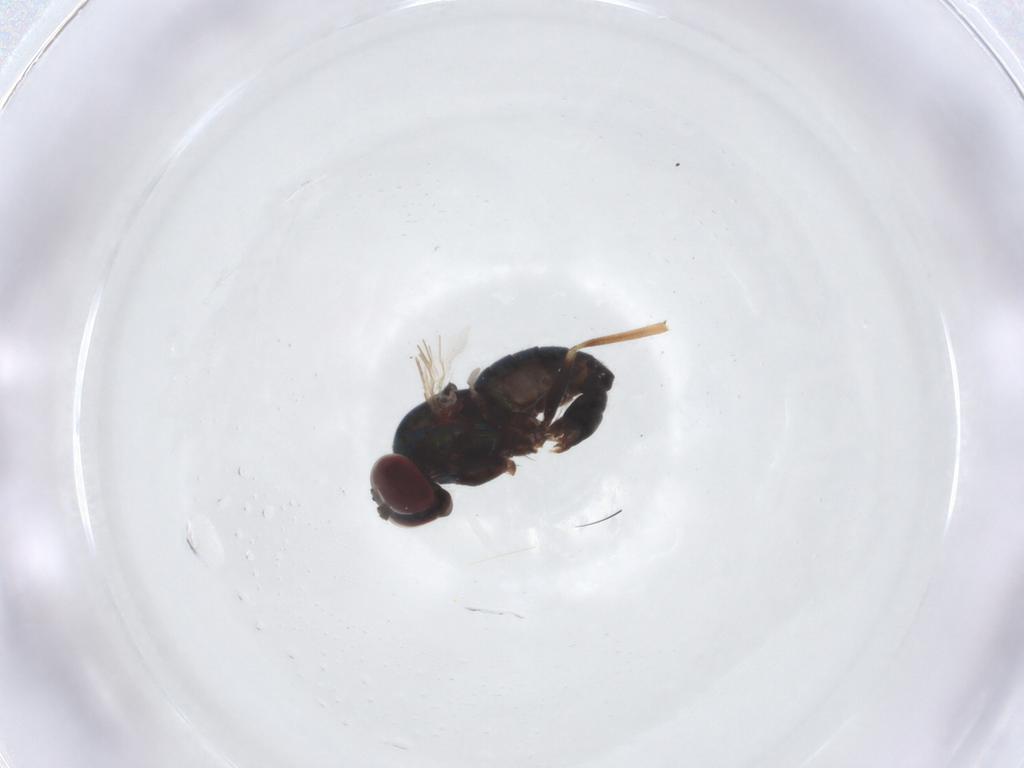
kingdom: Animalia
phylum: Arthropoda
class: Insecta
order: Diptera
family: Dolichopodidae
